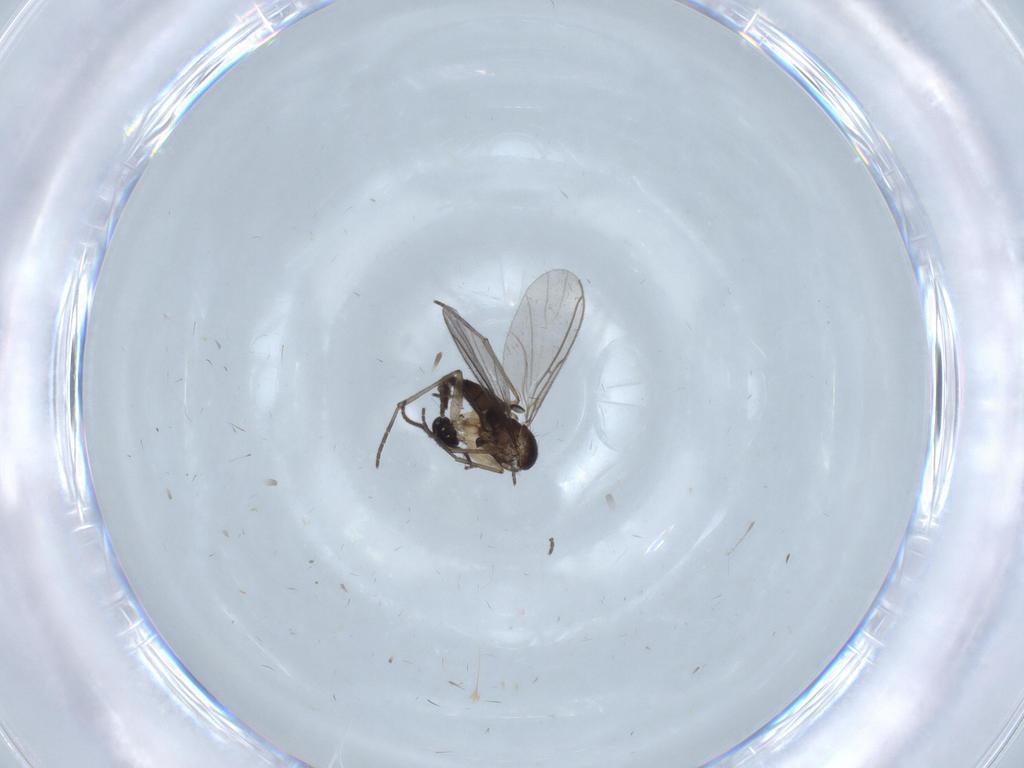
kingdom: Animalia
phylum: Arthropoda
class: Insecta
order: Diptera
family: Sciaridae
